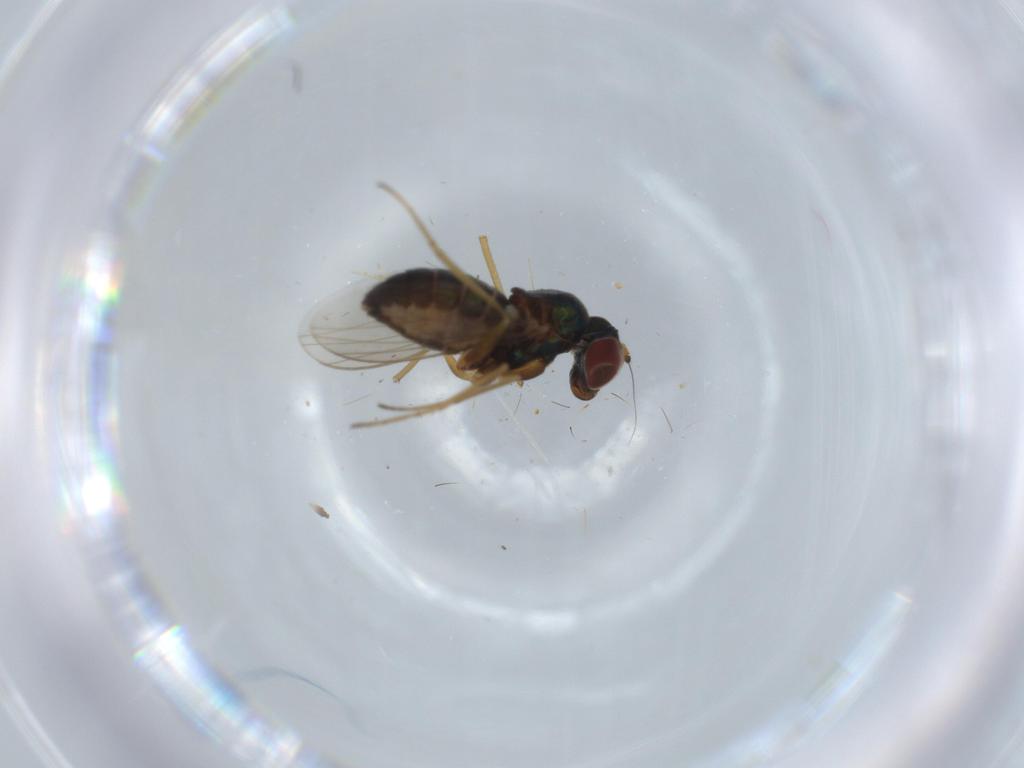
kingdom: Animalia
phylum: Arthropoda
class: Insecta
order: Diptera
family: Dolichopodidae
